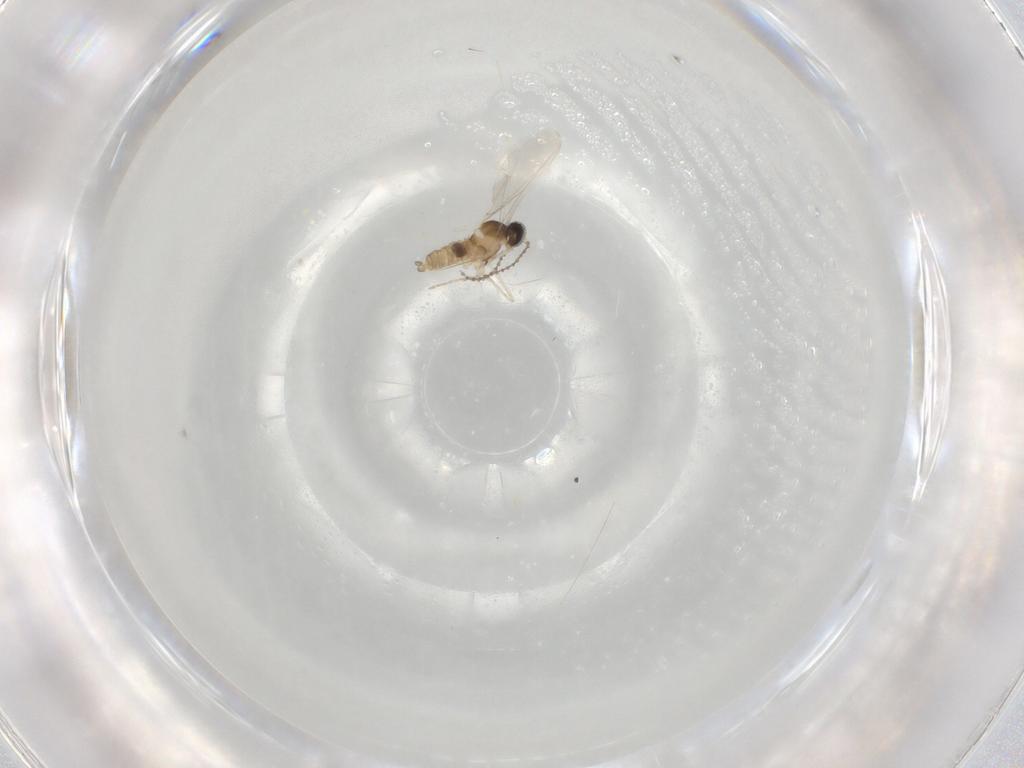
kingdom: Animalia
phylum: Arthropoda
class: Insecta
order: Diptera
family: Cecidomyiidae
